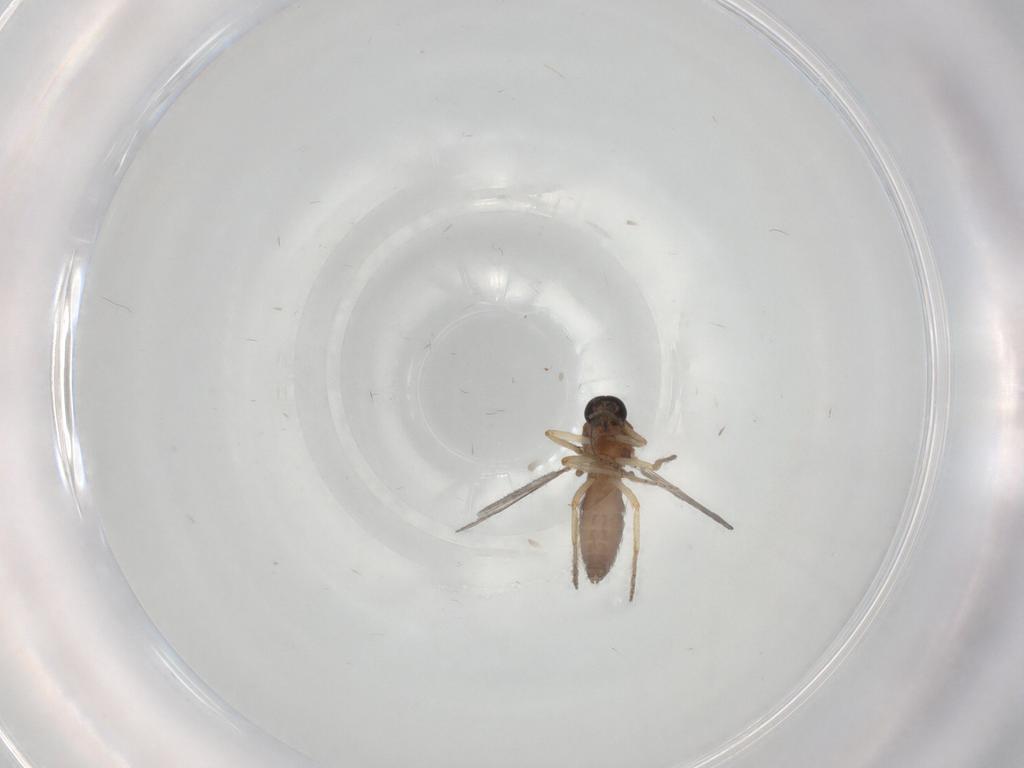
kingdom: Animalia
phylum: Arthropoda
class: Insecta
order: Diptera
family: Ceratopogonidae
